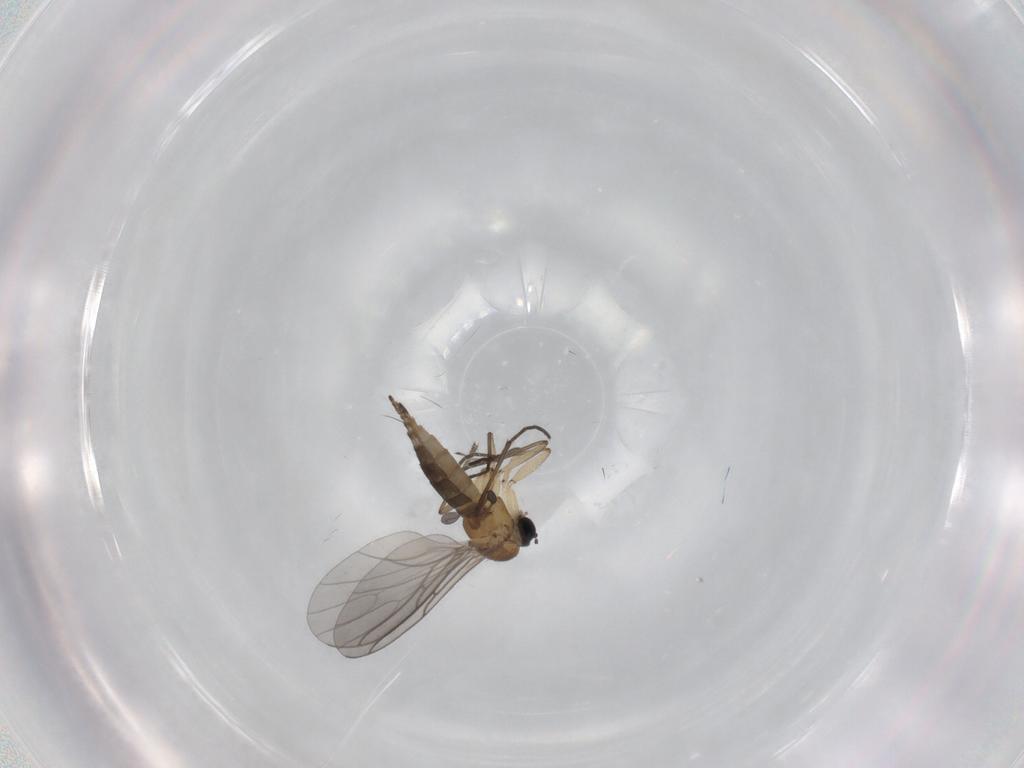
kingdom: Animalia
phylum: Arthropoda
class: Insecta
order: Diptera
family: Sciaridae
